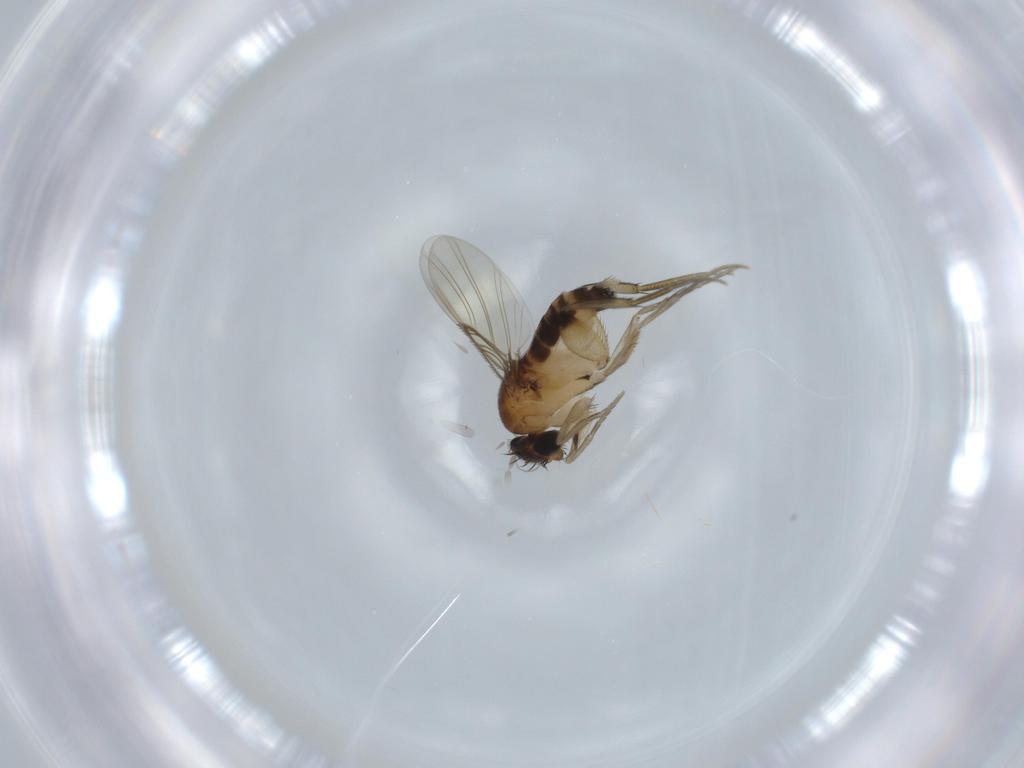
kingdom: Animalia
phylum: Arthropoda
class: Insecta
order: Diptera
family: Phoridae
